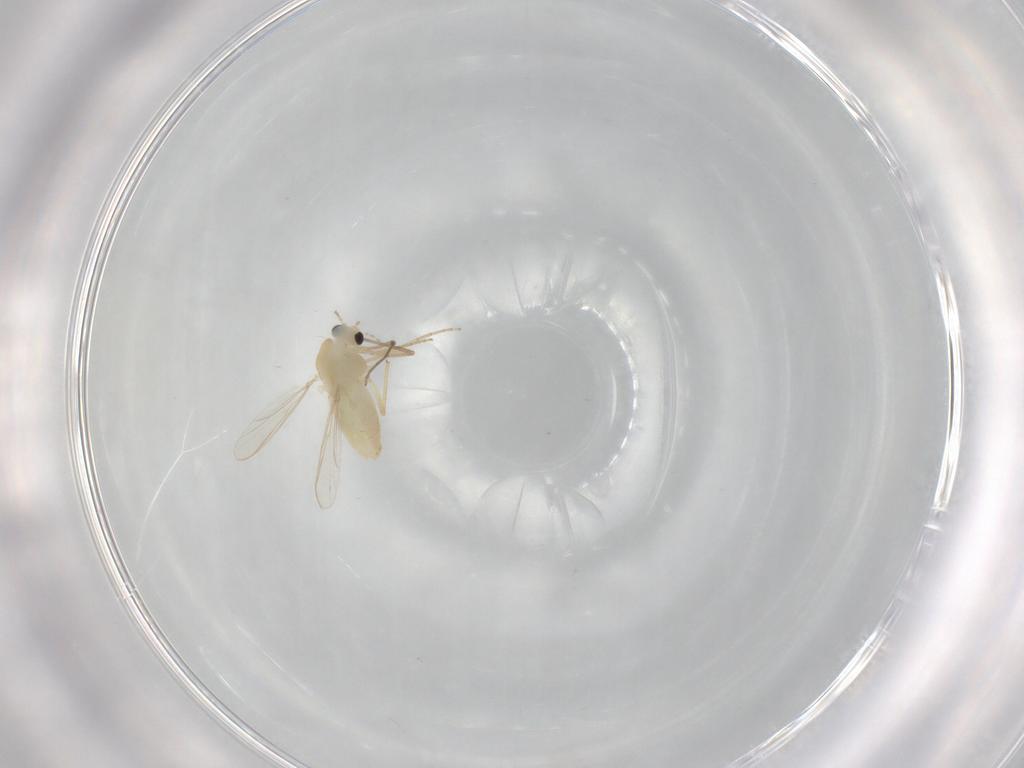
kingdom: Animalia
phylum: Arthropoda
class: Insecta
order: Diptera
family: Chironomidae
